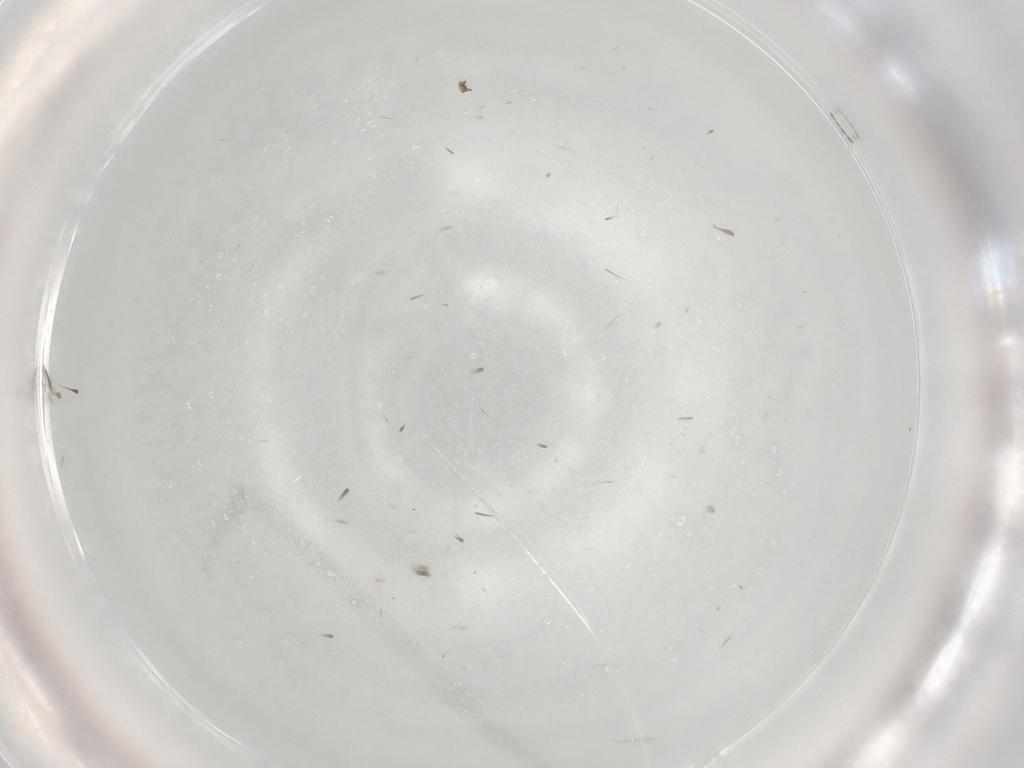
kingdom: Animalia
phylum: Arthropoda
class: Insecta
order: Diptera
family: Phoridae
